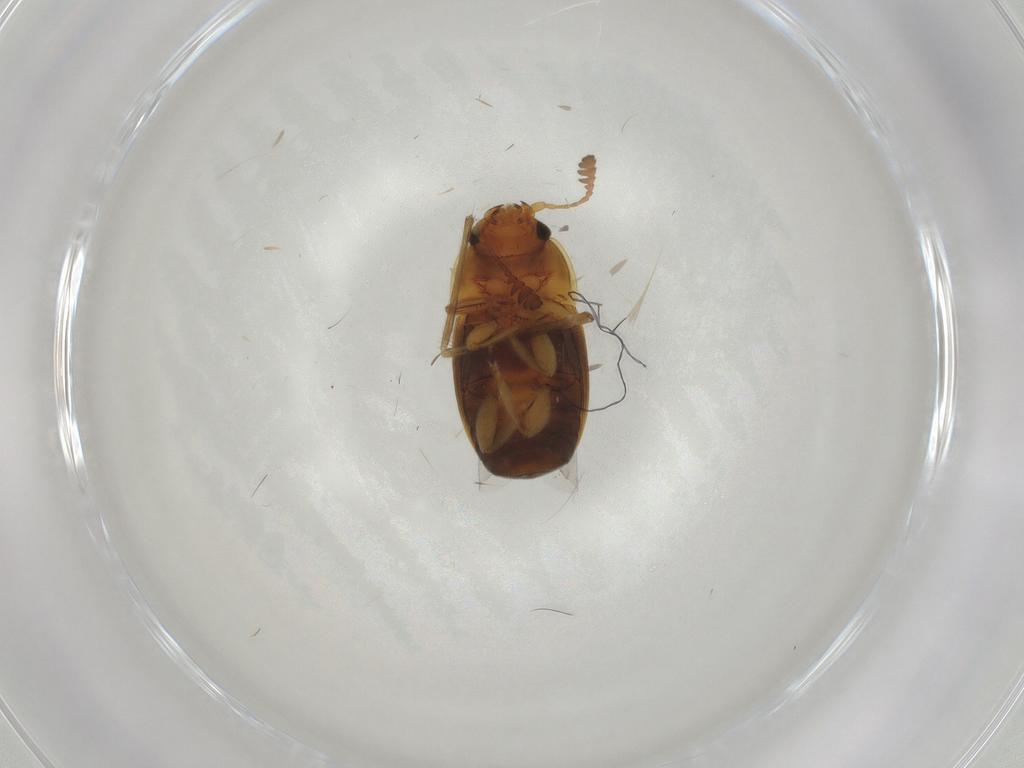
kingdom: Animalia
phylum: Arthropoda
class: Insecta
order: Coleoptera
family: Nitidulidae
